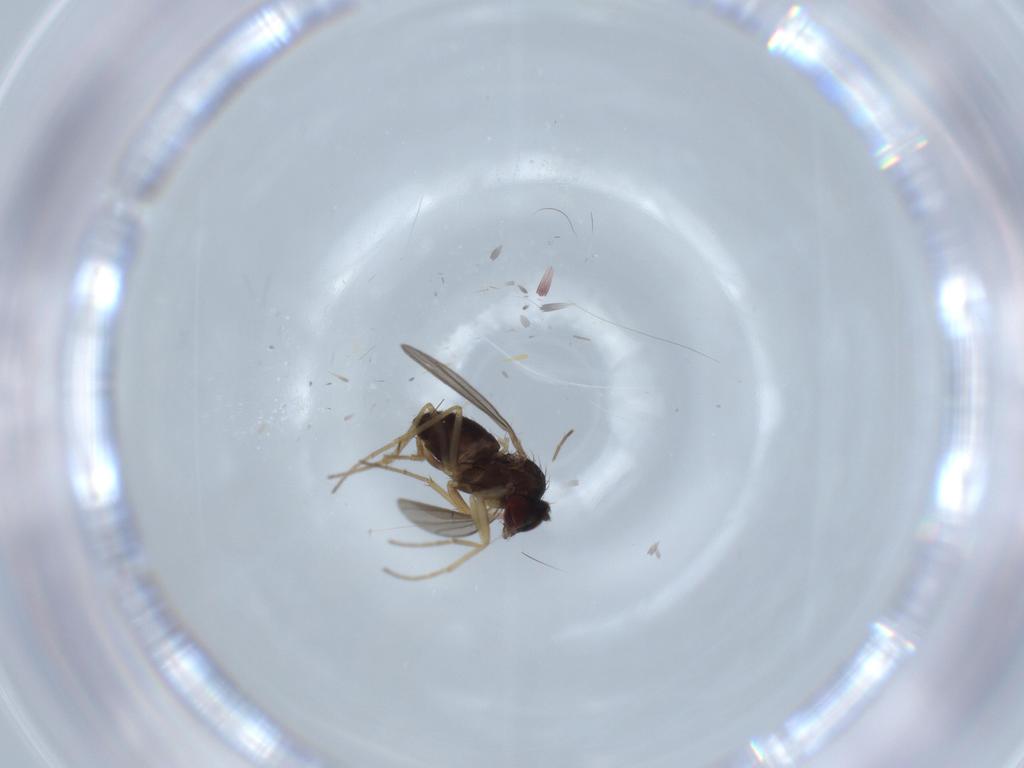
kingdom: Animalia
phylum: Arthropoda
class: Insecta
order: Diptera
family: Dolichopodidae
